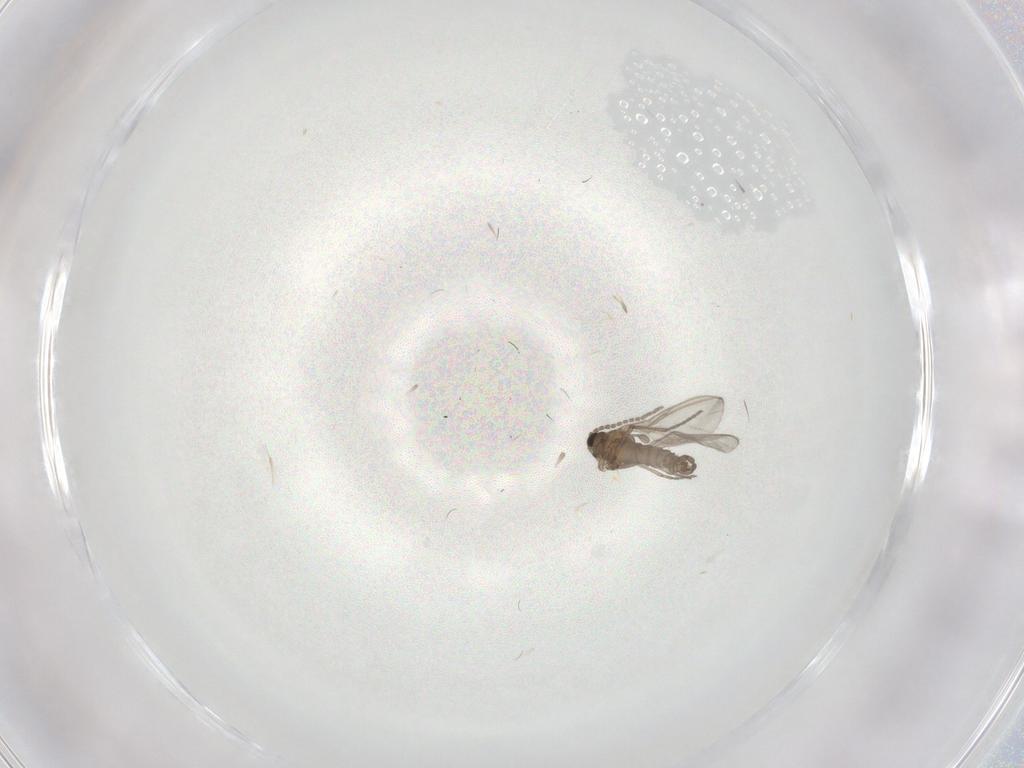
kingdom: Animalia
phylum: Arthropoda
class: Insecta
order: Diptera
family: Sciaridae
